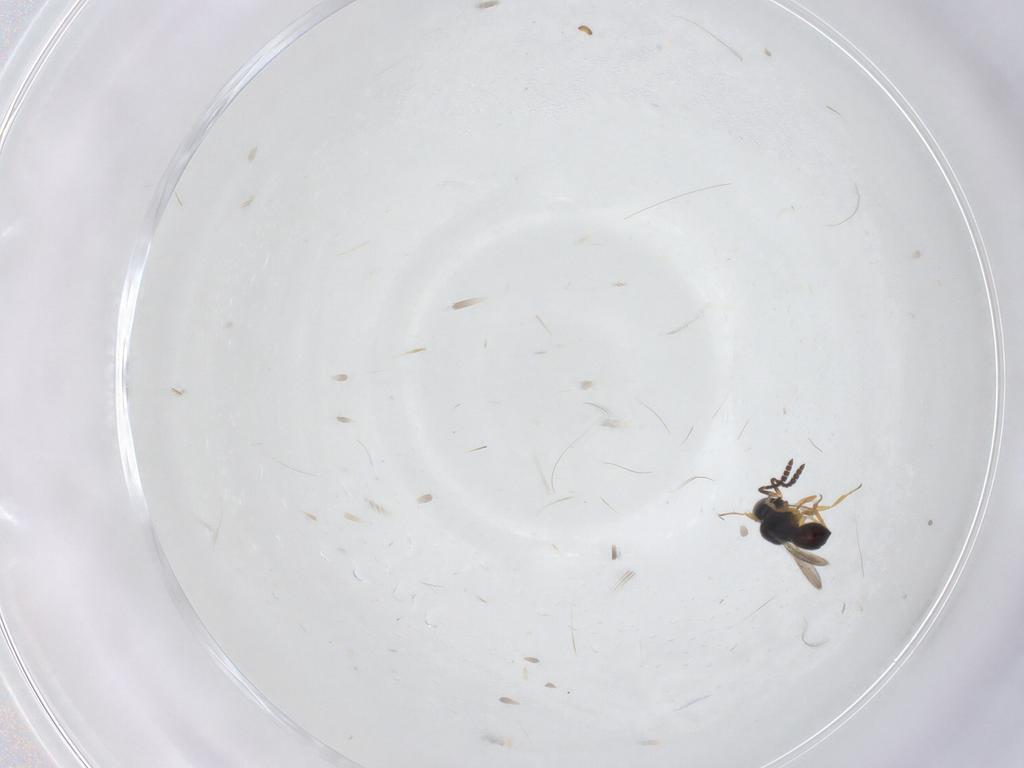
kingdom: Animalia
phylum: Arthropoda
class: Insecta
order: Hymenoptera
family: Scelionidae
